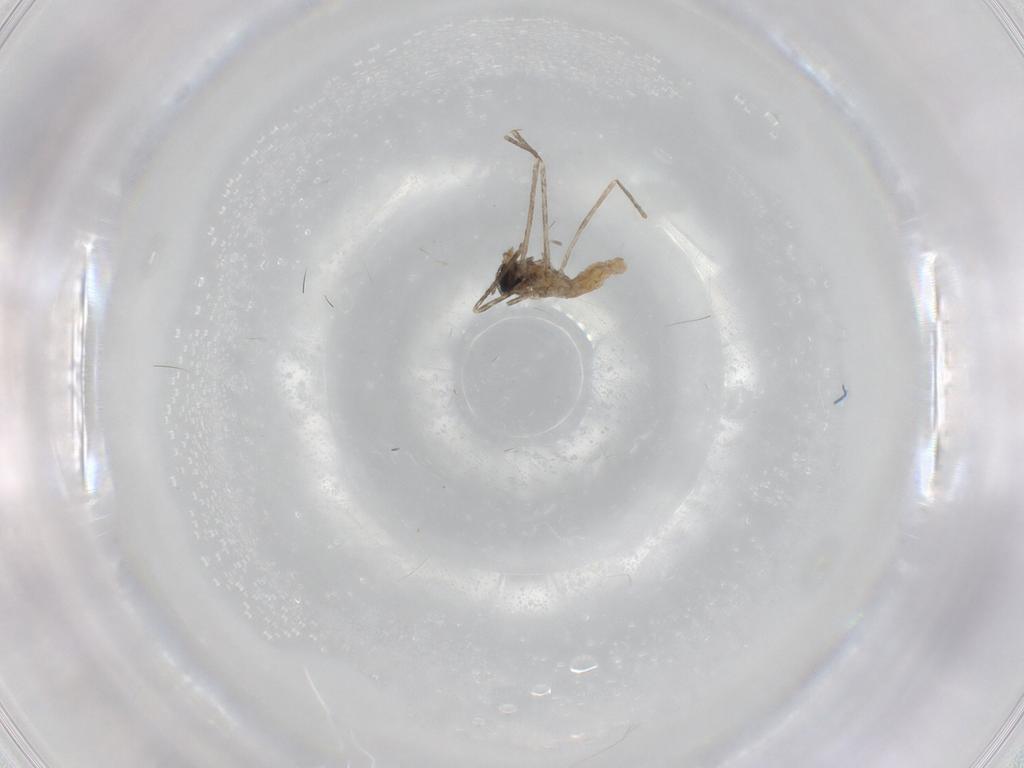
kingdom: Animalia
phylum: Arthropoda
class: Insecta
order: Diptera
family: Cecidomyiidae
